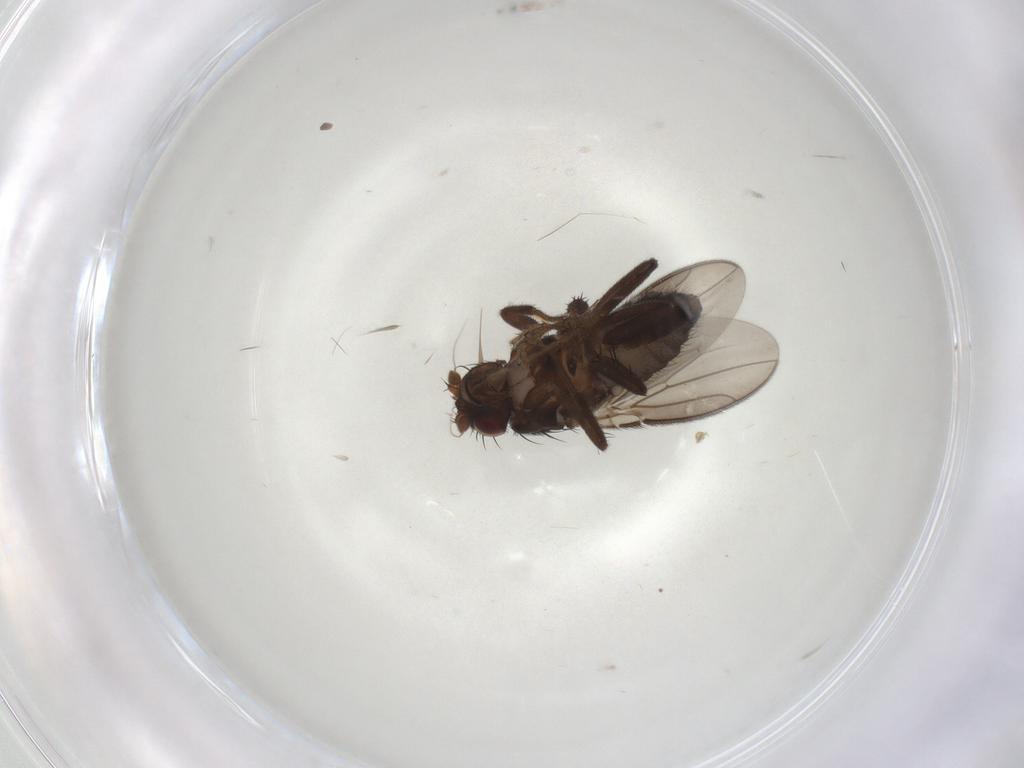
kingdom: Animalia
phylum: Arthropoda
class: Insecta
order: Diptera
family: Sphaeroceridae
